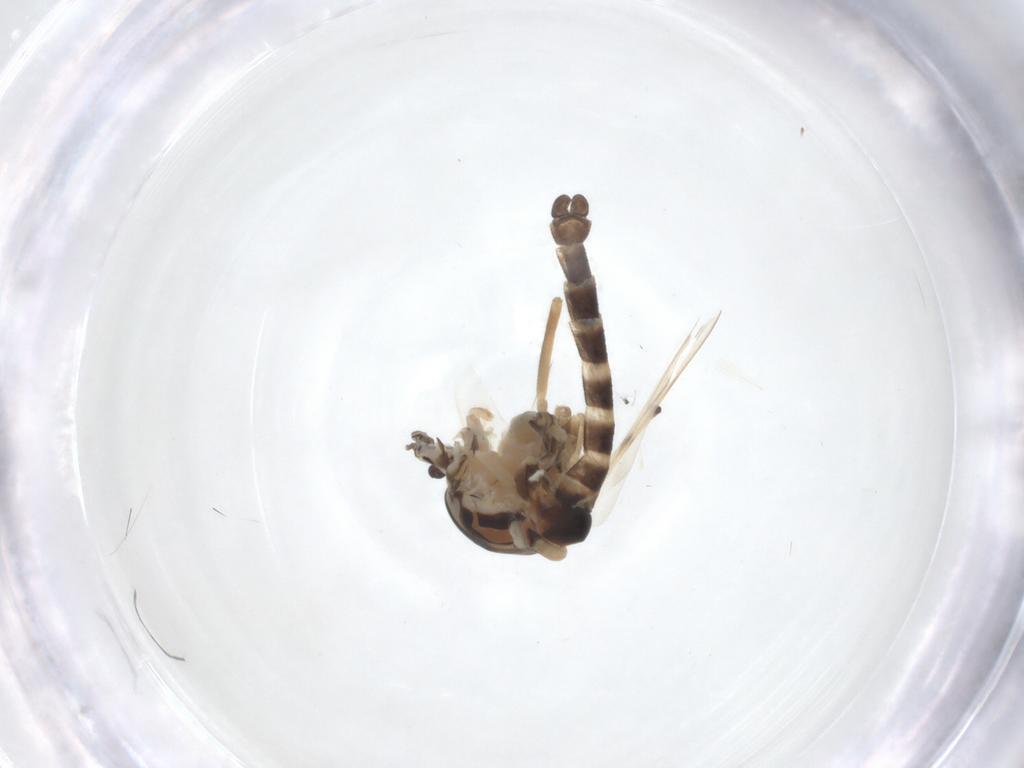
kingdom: Animalia
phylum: Arthropoda
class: Insecta
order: Diptera
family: Chironomidae
